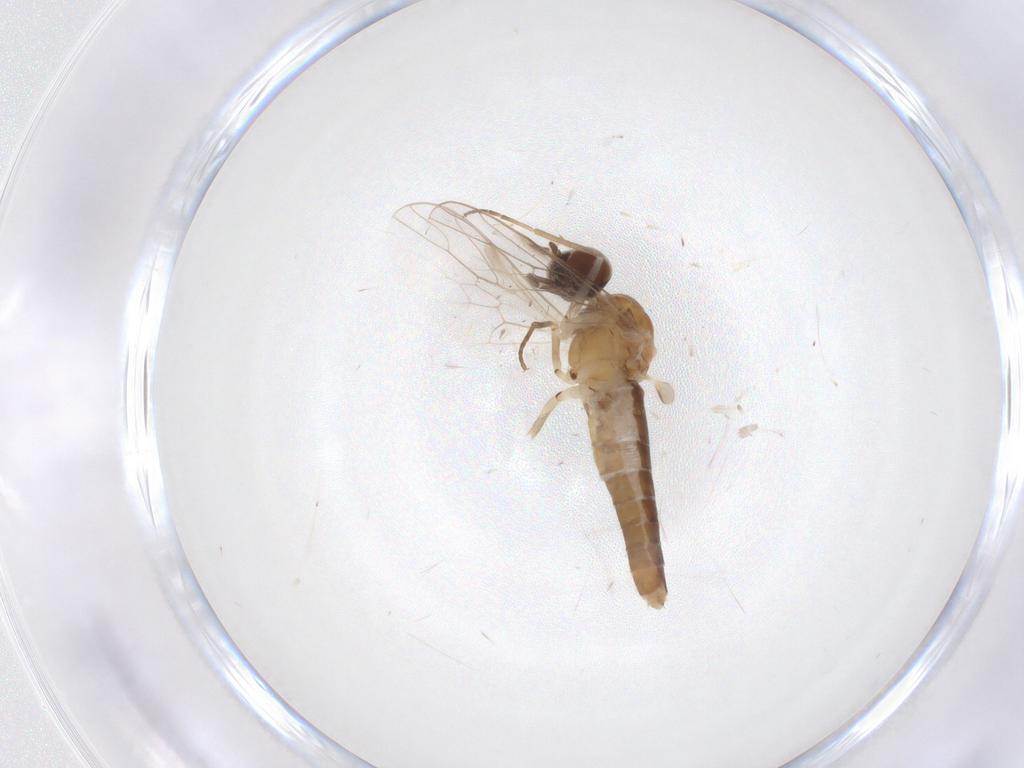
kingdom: Animalia
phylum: Arthropoda
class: Insecta
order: Diptera
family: Scenopinidae
